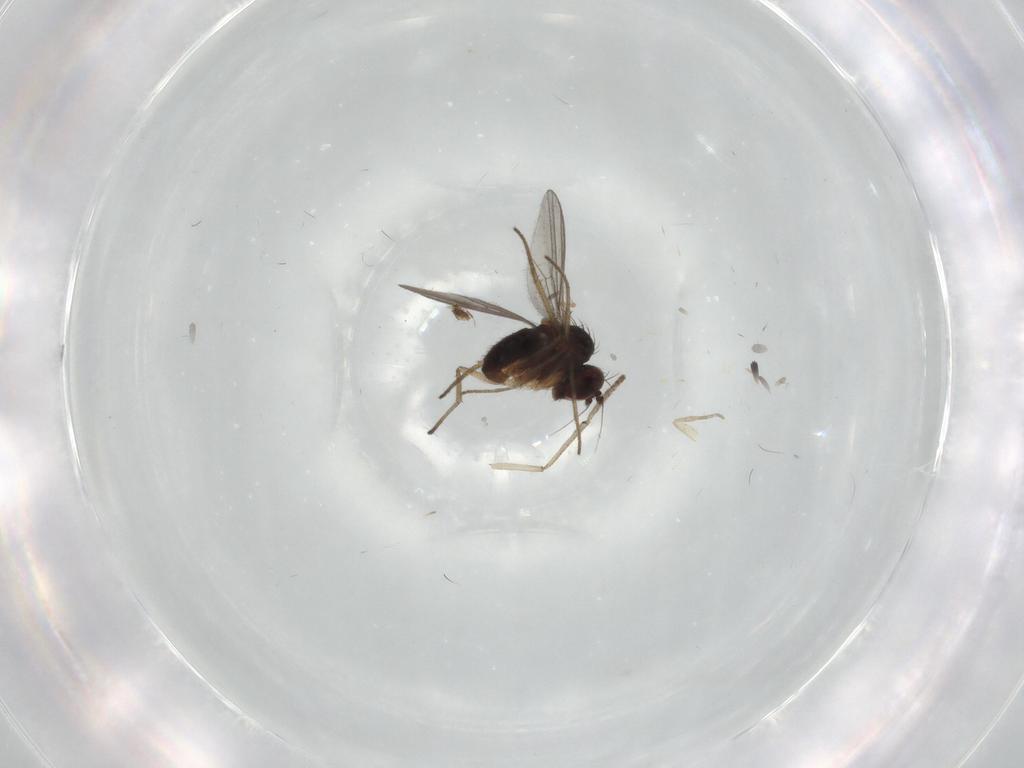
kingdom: Animalia
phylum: Arthropoda
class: Insecta
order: Diptera
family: Dolichopodidae
